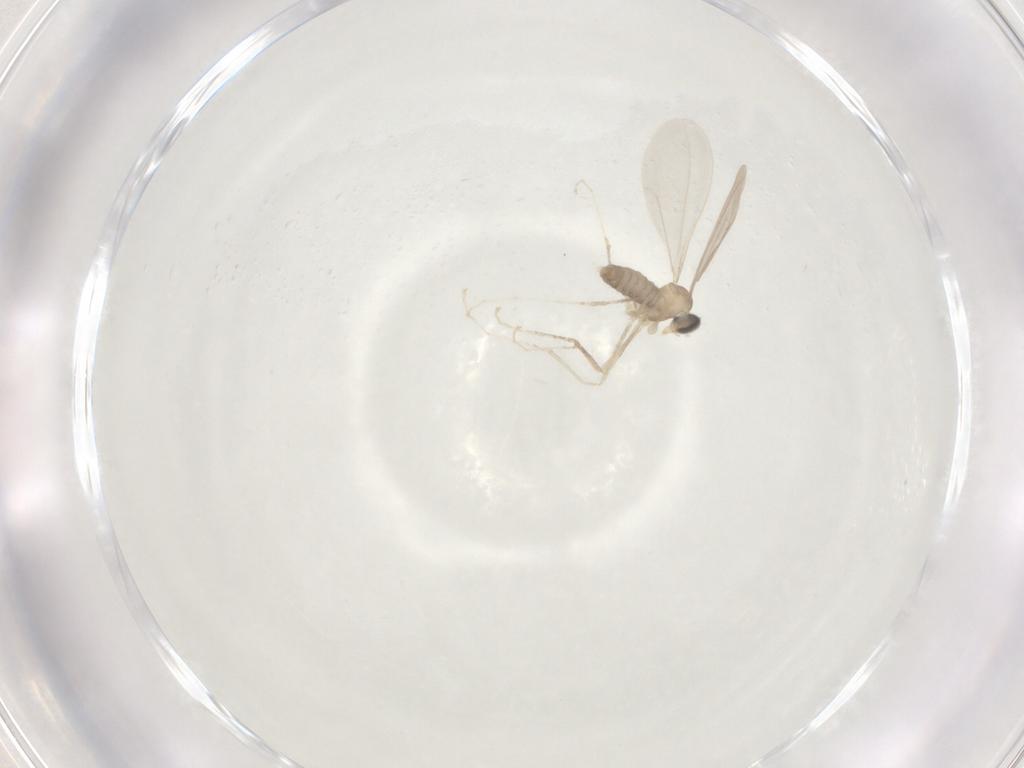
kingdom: Animalia
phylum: Arthropoda
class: Insecta
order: Diptera
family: Cecidomyiidae
